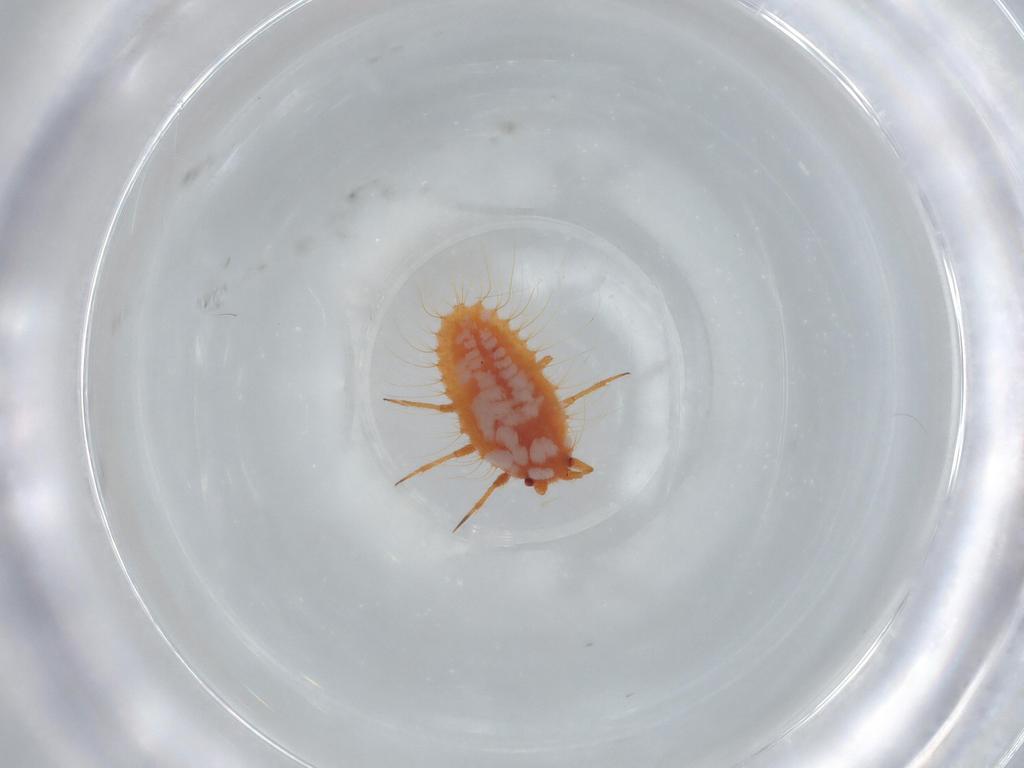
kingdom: Animalia
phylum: Arthropoda
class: Insecta
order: Hemiptera
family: Coccoidea_incertae_sedis
